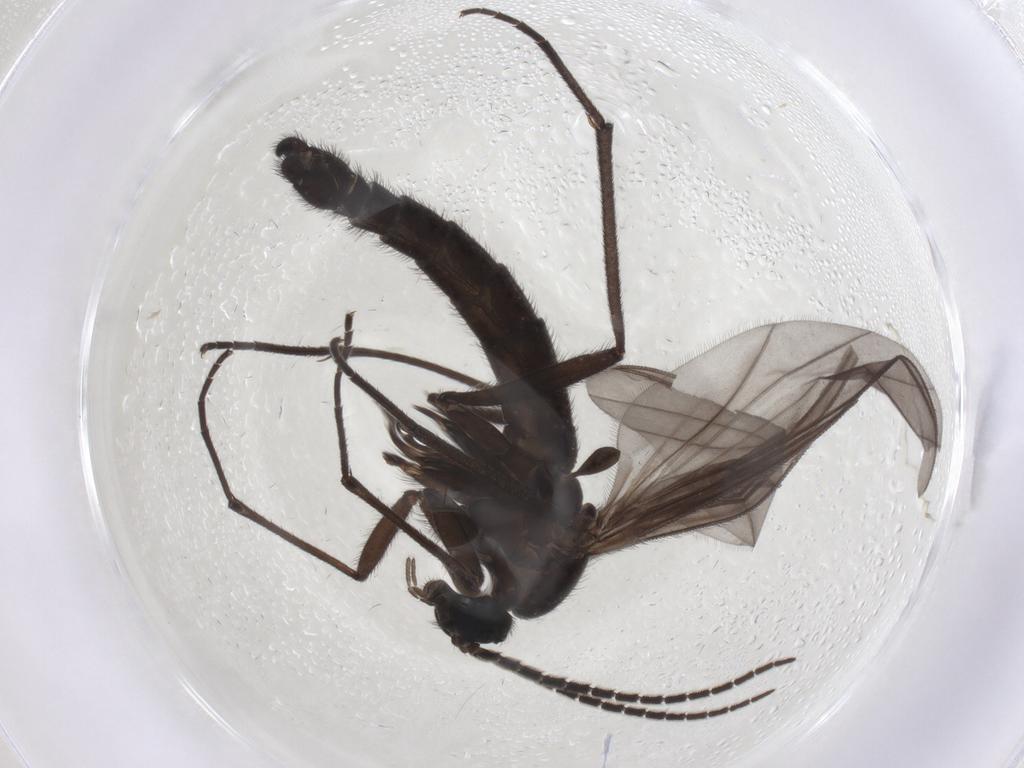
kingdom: Animalia
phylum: Arthropoda
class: Insecta
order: Diptera
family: Sciaridae
